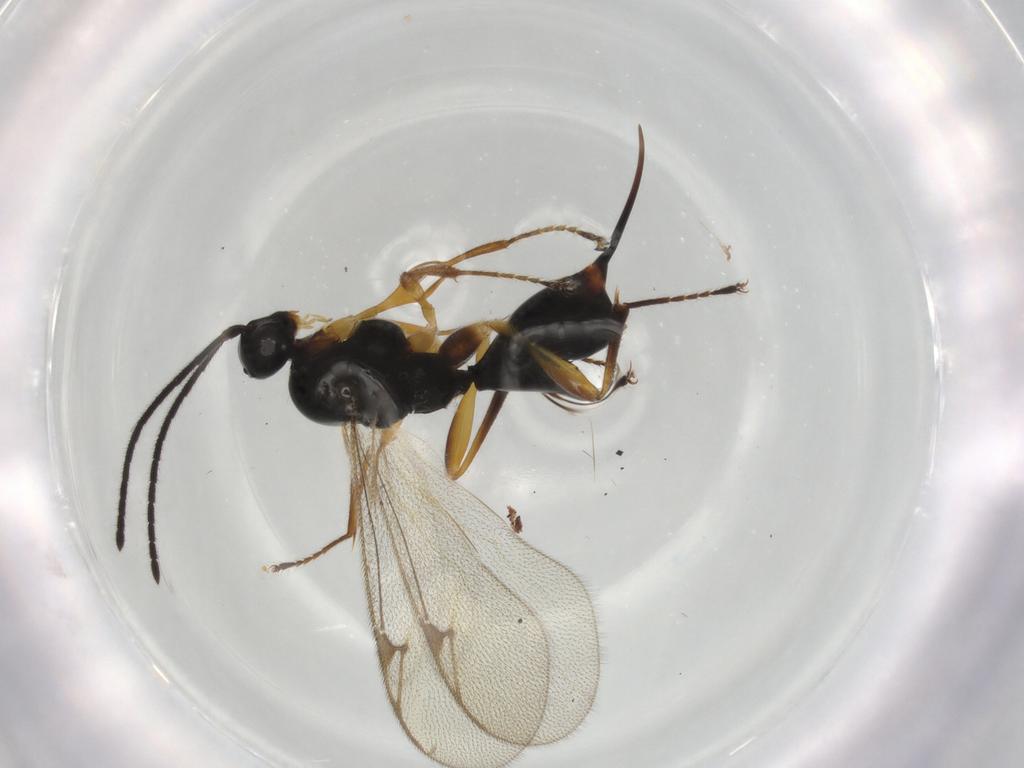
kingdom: Animalia
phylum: Arthropoda
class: Insecta
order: Hymenoptera
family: Proctotrupidae
